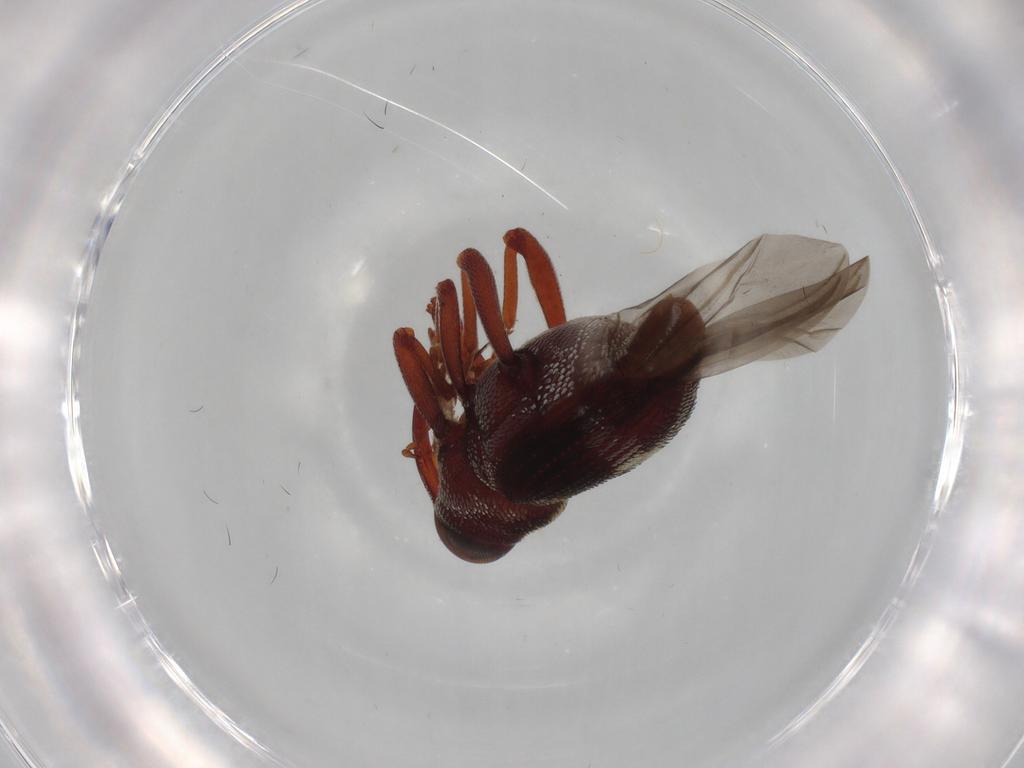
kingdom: Animalia
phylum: Arthropoda
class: Insecta
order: Coleoptera
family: Curculionidae
